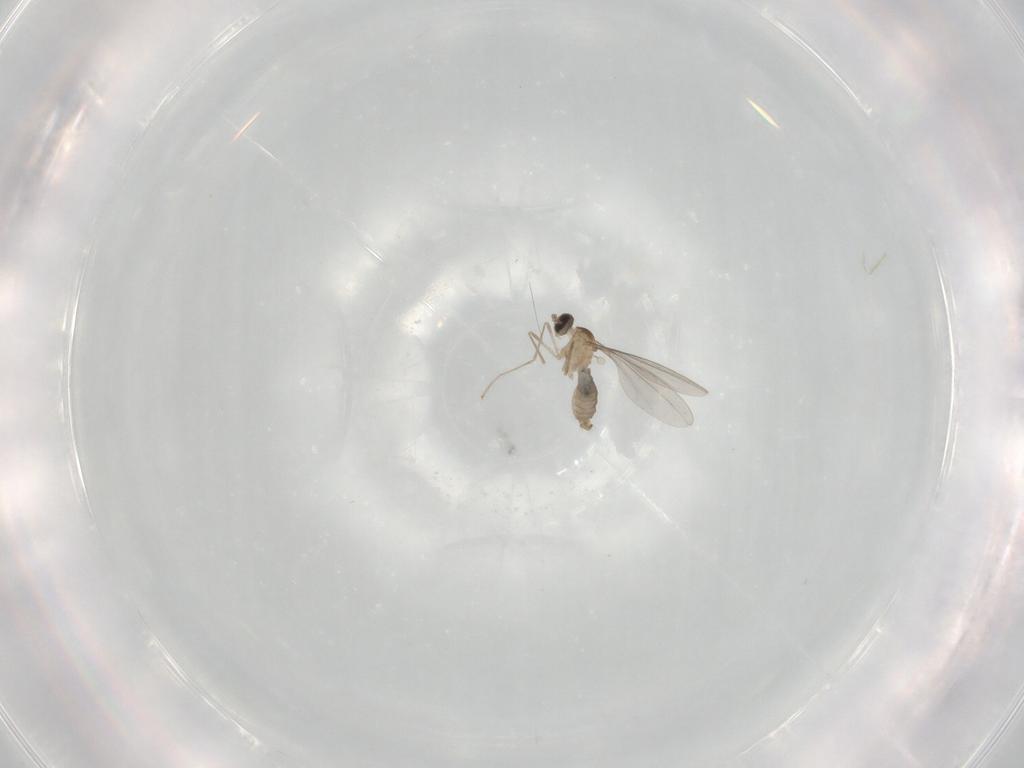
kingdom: Animalia
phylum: Arthropoda
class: Insecta
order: Diptera
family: Cecidomyiidae
